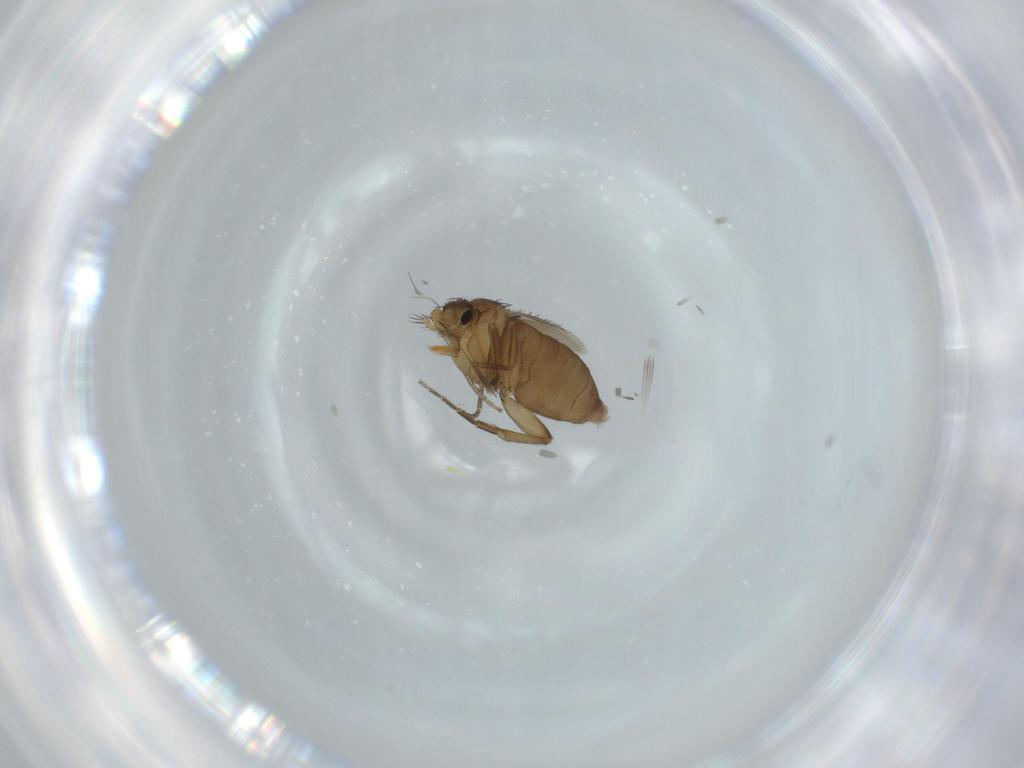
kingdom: Animalia
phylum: Arthropoda
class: Insecta
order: Diptera
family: Phoridae
